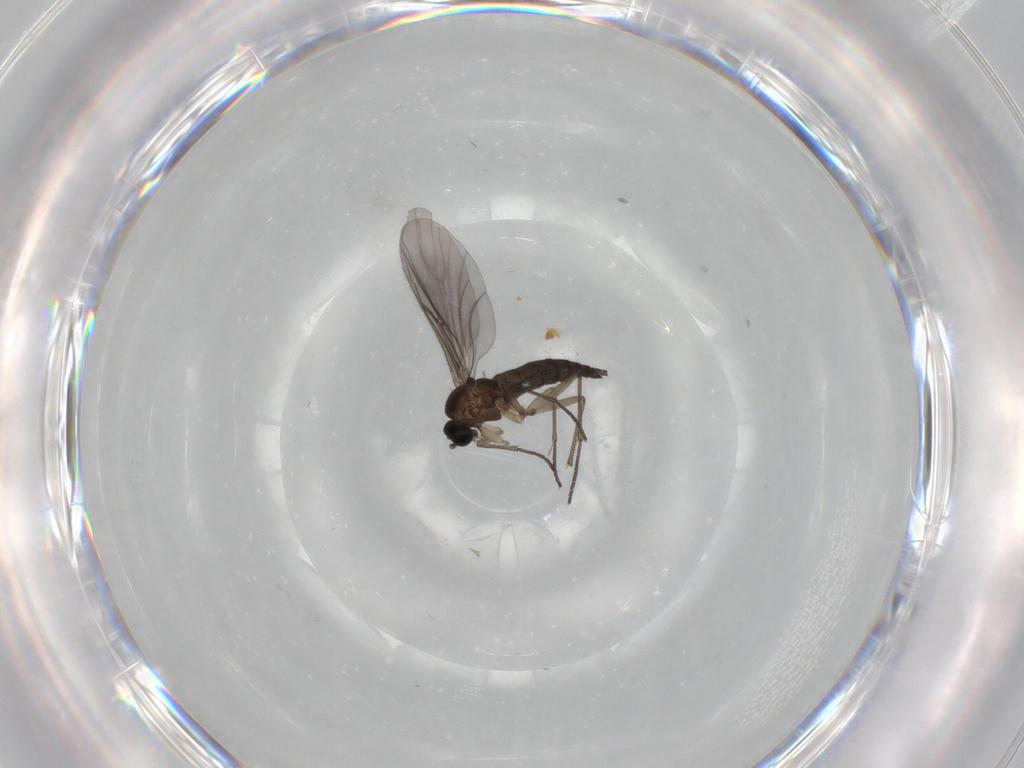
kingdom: Animalia
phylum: Arthropoda
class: Insecta
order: Diptera
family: Sciaridae
